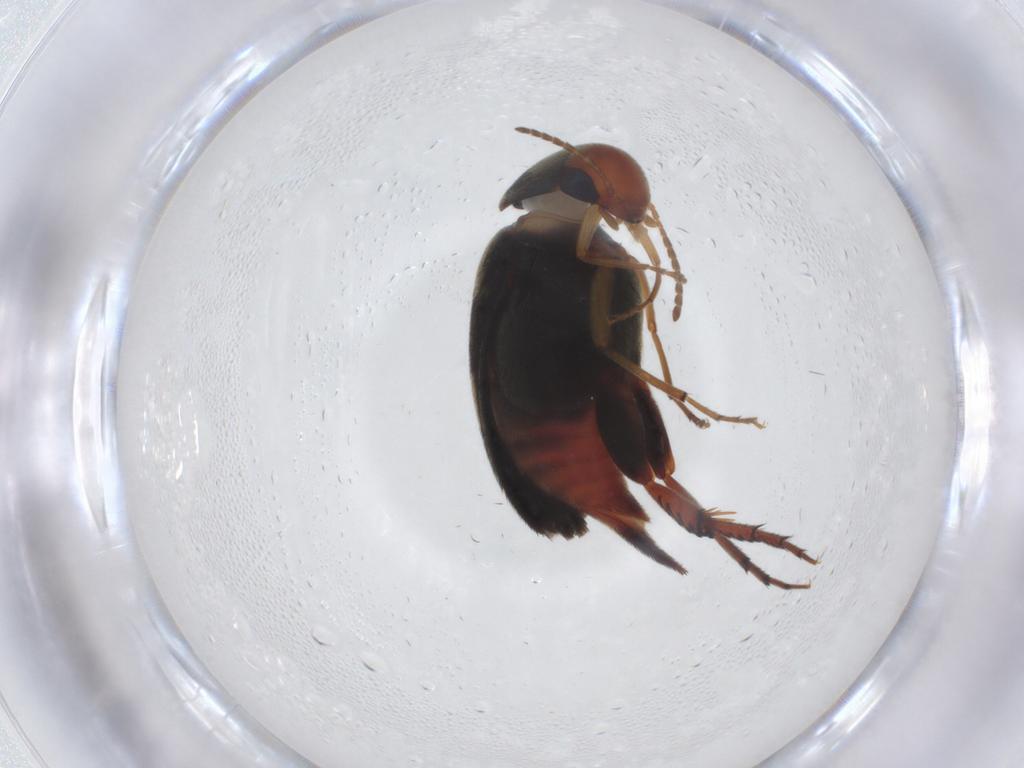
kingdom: Animalia
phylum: Arthropoda
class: Insecta
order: Coleoptera
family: Mordellidae
